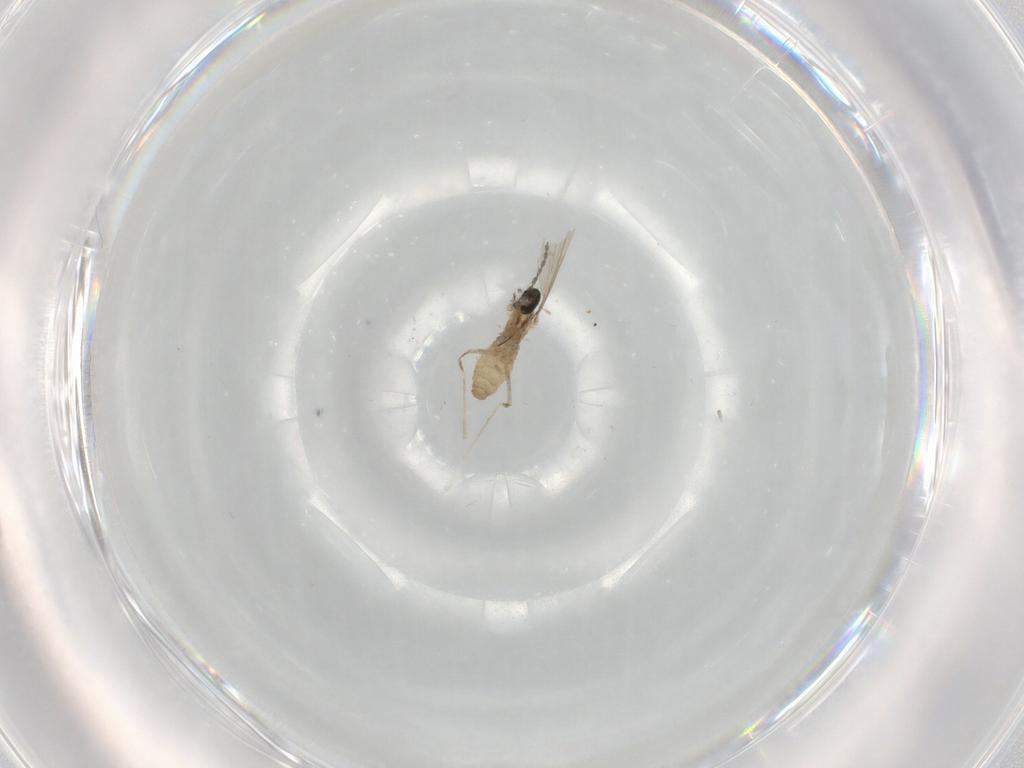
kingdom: Animalia
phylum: Arthropoda
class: Insecta
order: Diptera
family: Cecidomyiidae
